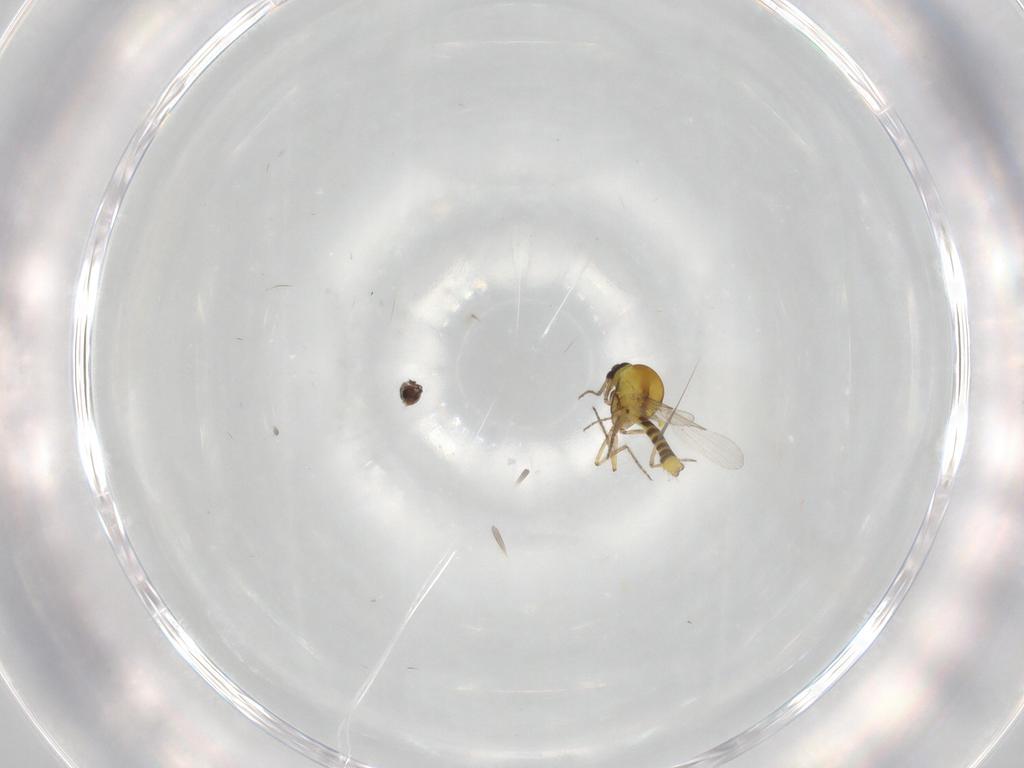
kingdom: Animalia
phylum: Arthropoda
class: Insecta
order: Diptera
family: Ceratopogonidae
